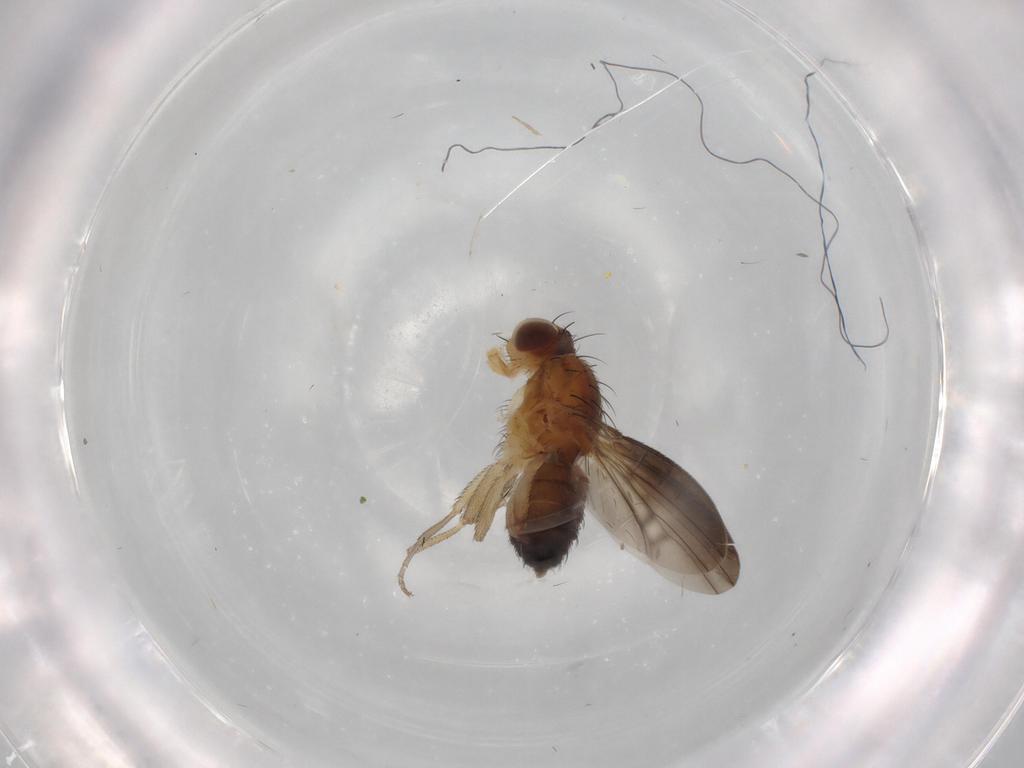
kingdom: Animalia
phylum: Arthropoda
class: Insecta
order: Diptera
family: Heleomyzidae
